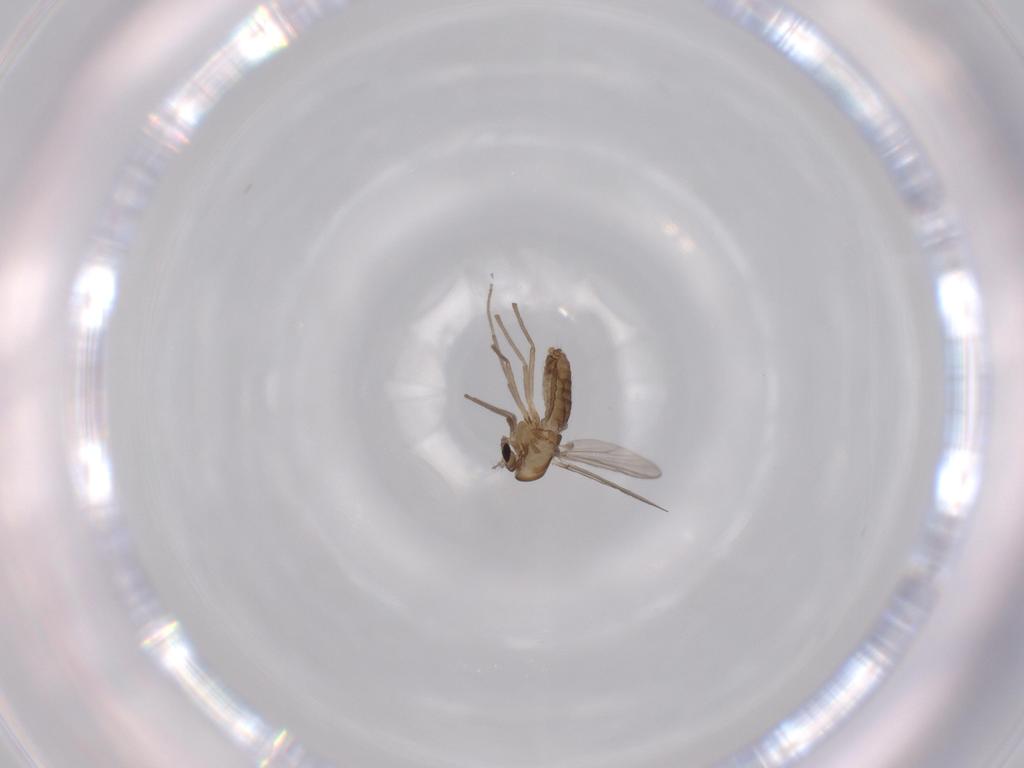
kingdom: Animalia
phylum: Arthropoda
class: Insecta
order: Diptera
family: Chironomidae
